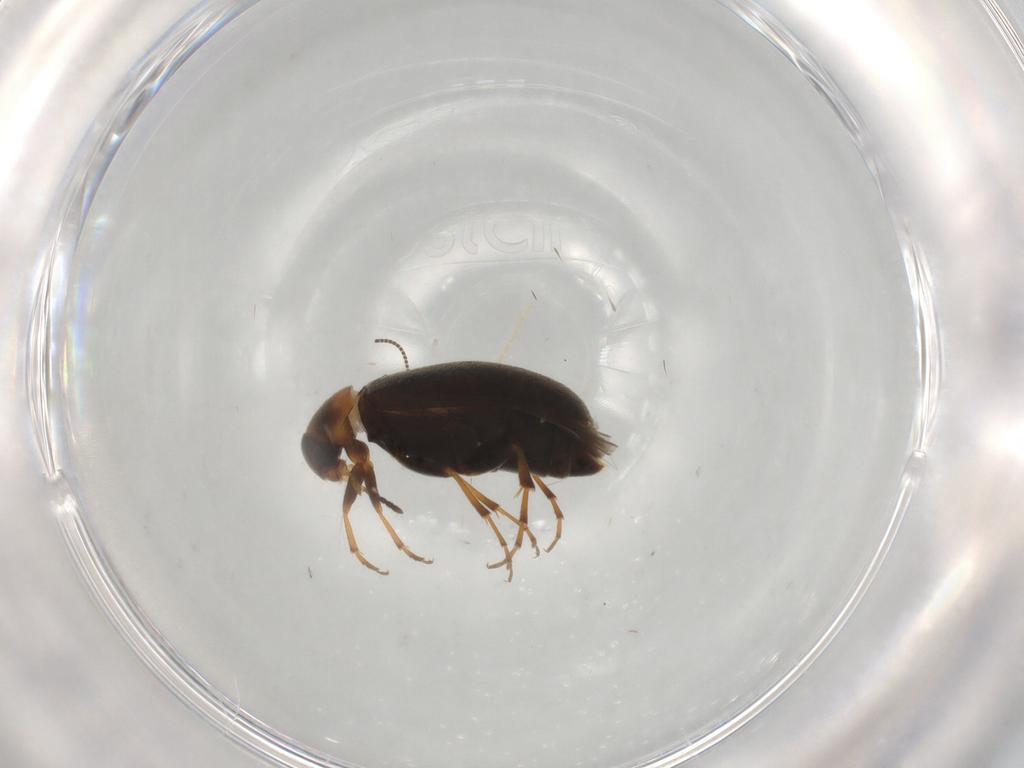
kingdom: Animalia
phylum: Arthropoda
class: Insecta
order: Coleoptera
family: Scraptiidae
